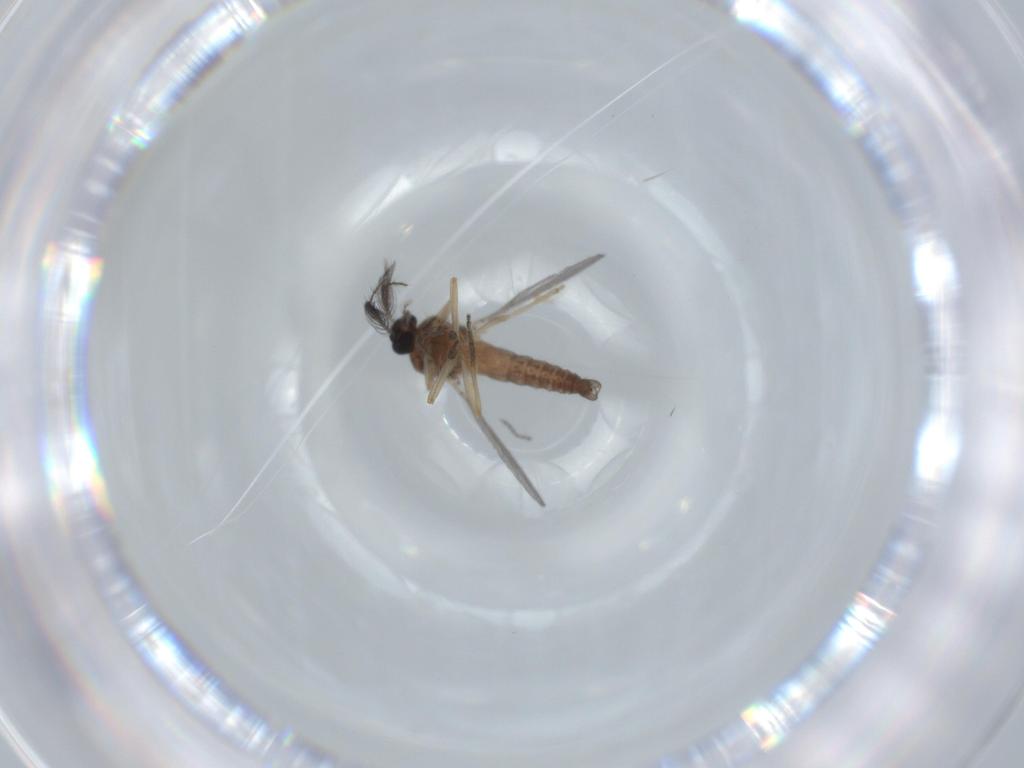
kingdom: Animalia
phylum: Arthropoda
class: Insecta
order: Diptera
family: Ceratopogonidae
